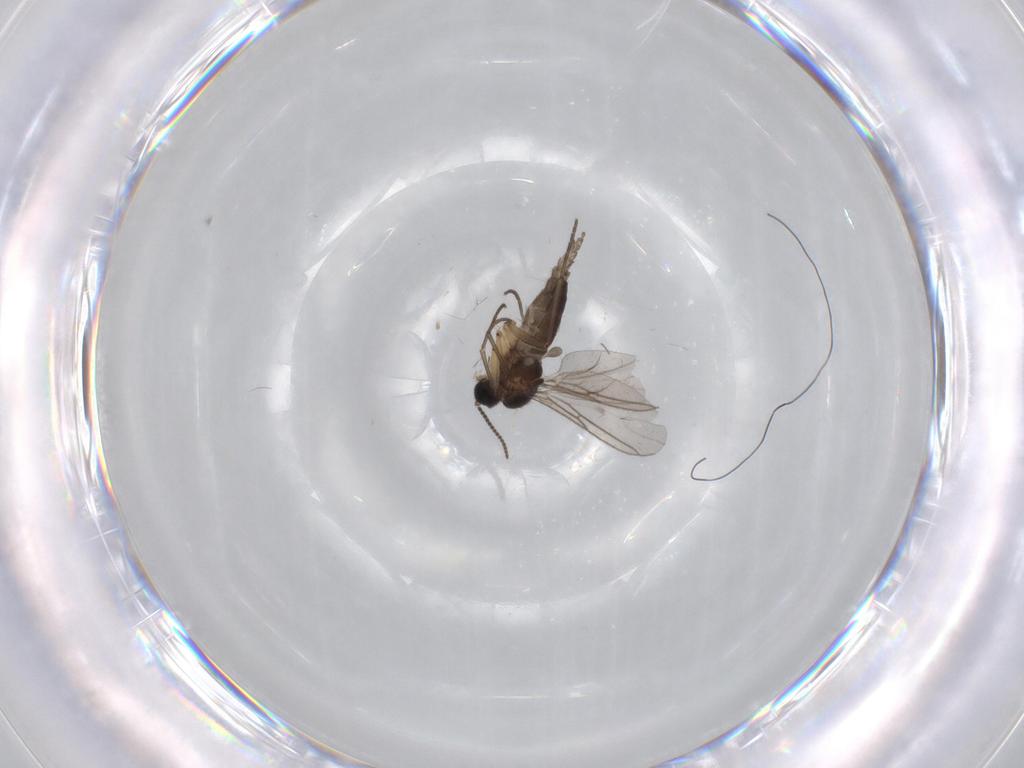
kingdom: Animalia
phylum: Arthropoda
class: Insecta
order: Diptera
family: Sciaridae
